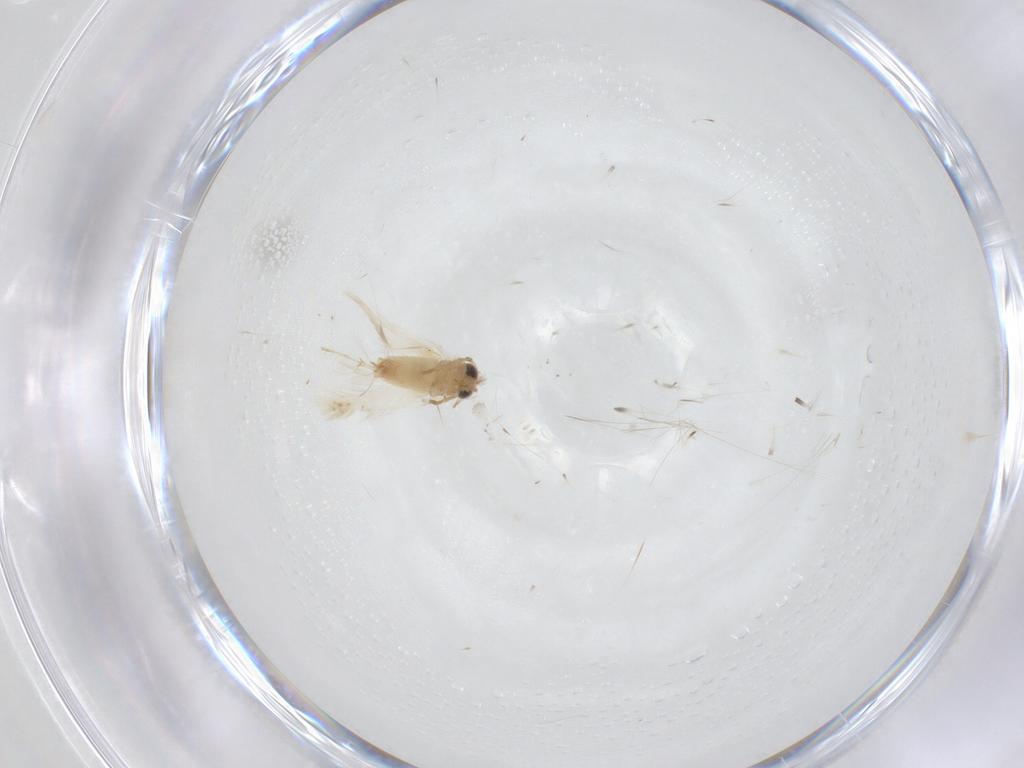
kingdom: Animalia
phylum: Arthropoda
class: Insecta
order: Lepidoptera
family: Crambidae
